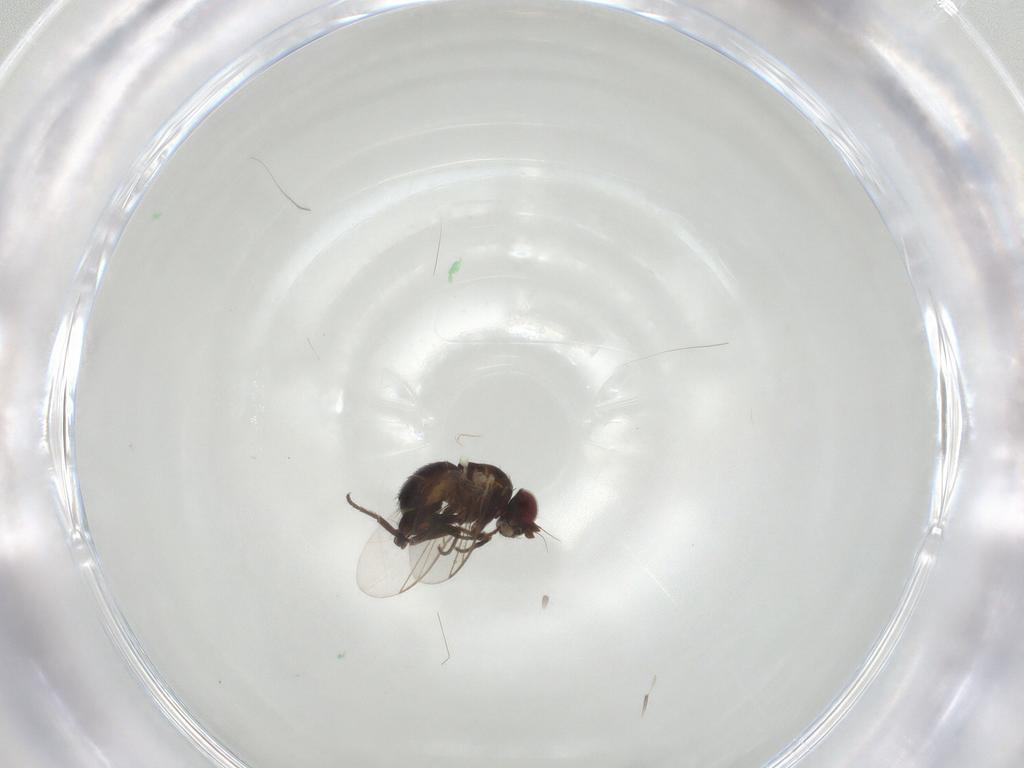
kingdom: Animalia
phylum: Arthropoda
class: Insecta
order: Diptera
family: Agromyzidae
